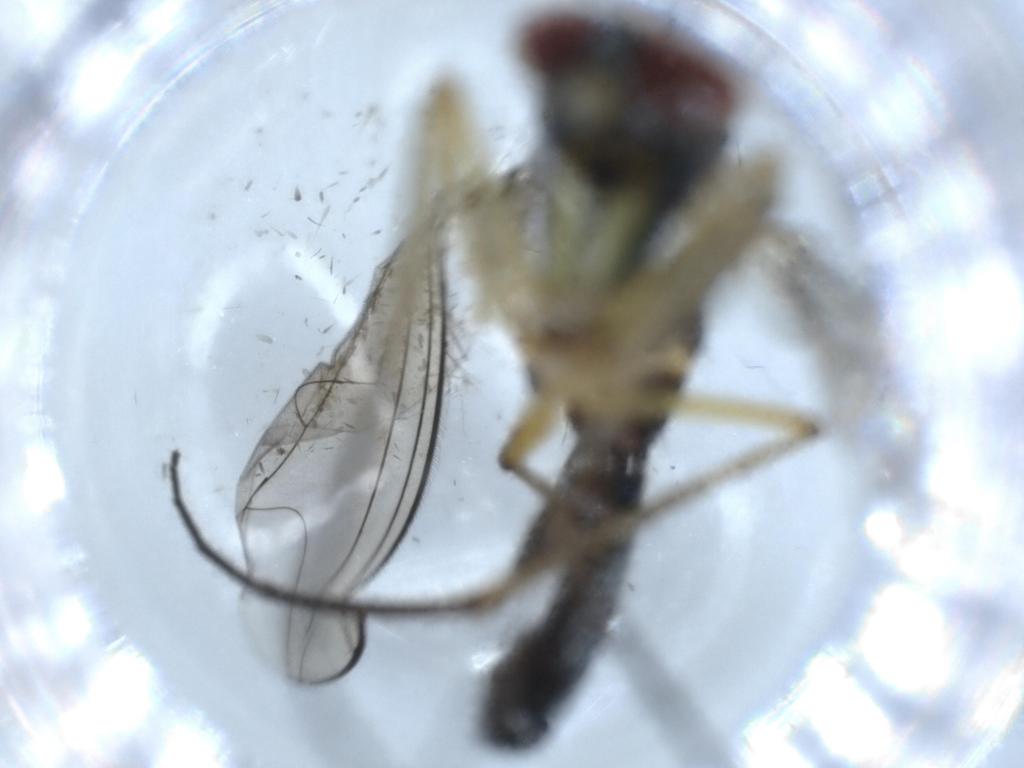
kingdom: Animalia
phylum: Arthropoda
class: Insecta
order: Diptera
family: Dolichopodidae
